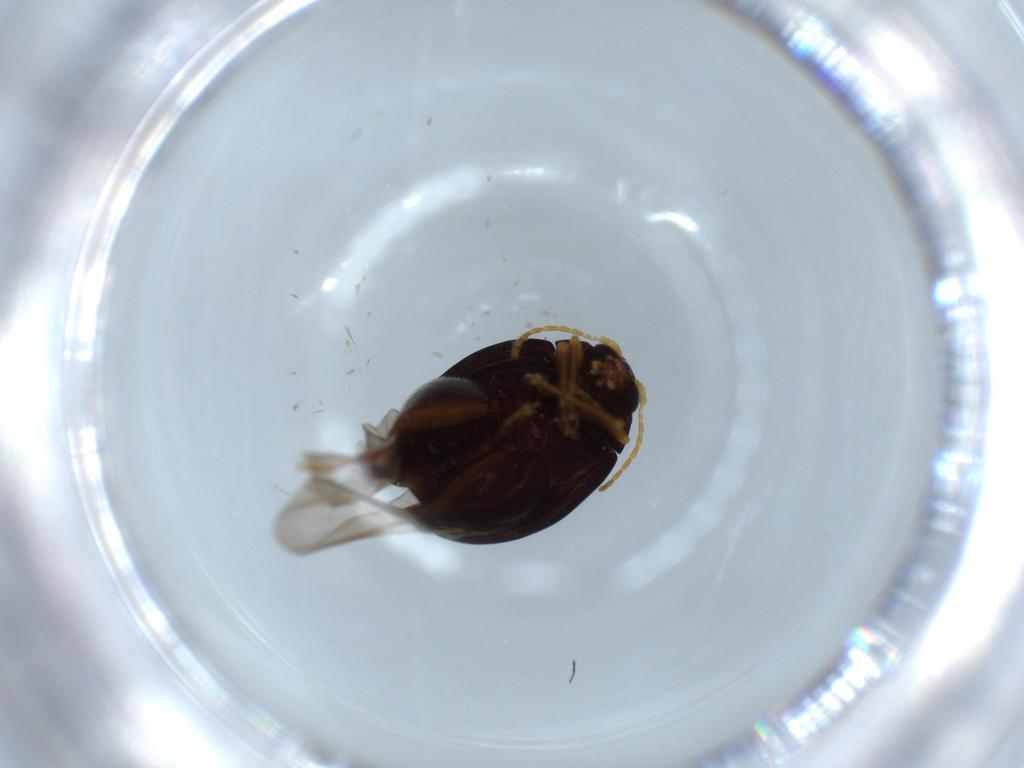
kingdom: Animalia
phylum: Arthropoda
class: Insecta
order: Coleoptera
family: Chrysomelidae
